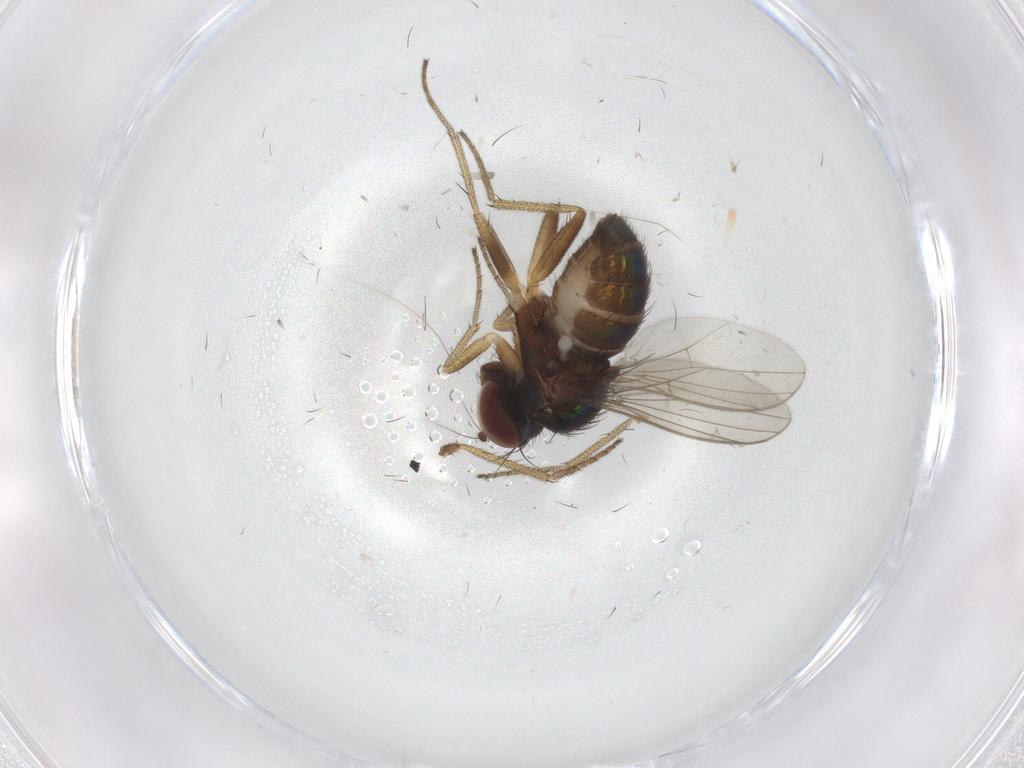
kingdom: Animalia
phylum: Arthropoda
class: Insecta
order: Diptera
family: Dolichopodidae
